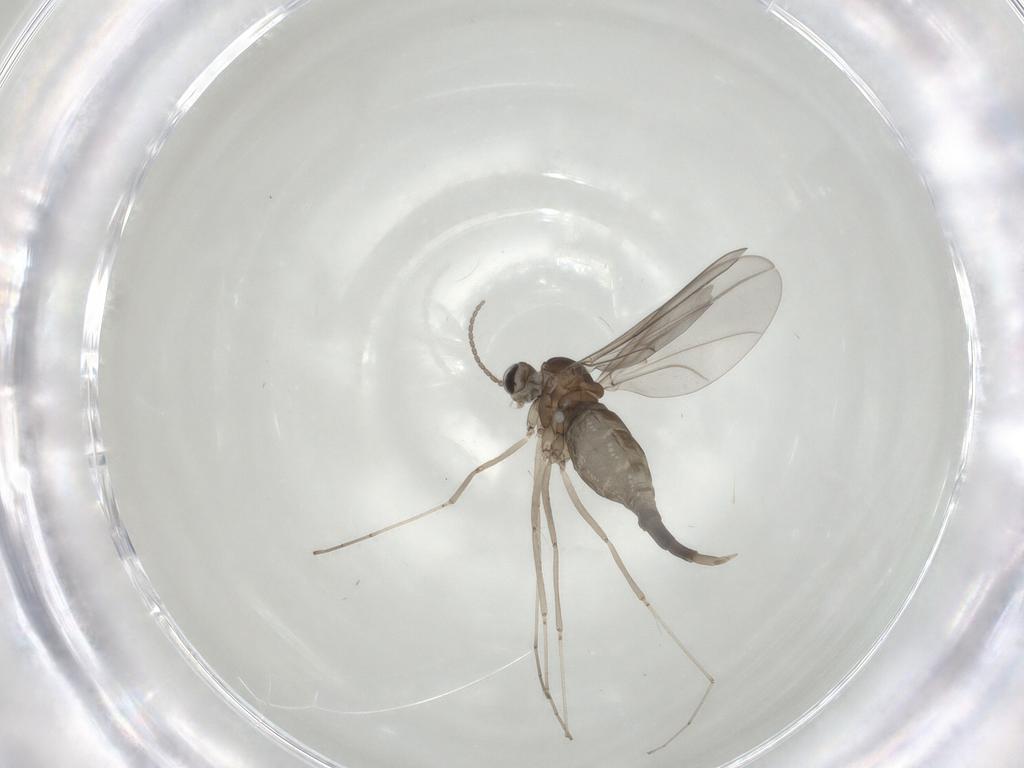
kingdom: Animalia
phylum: Arthropoda
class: Insecta
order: Diptera
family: Cecidomyiidae
